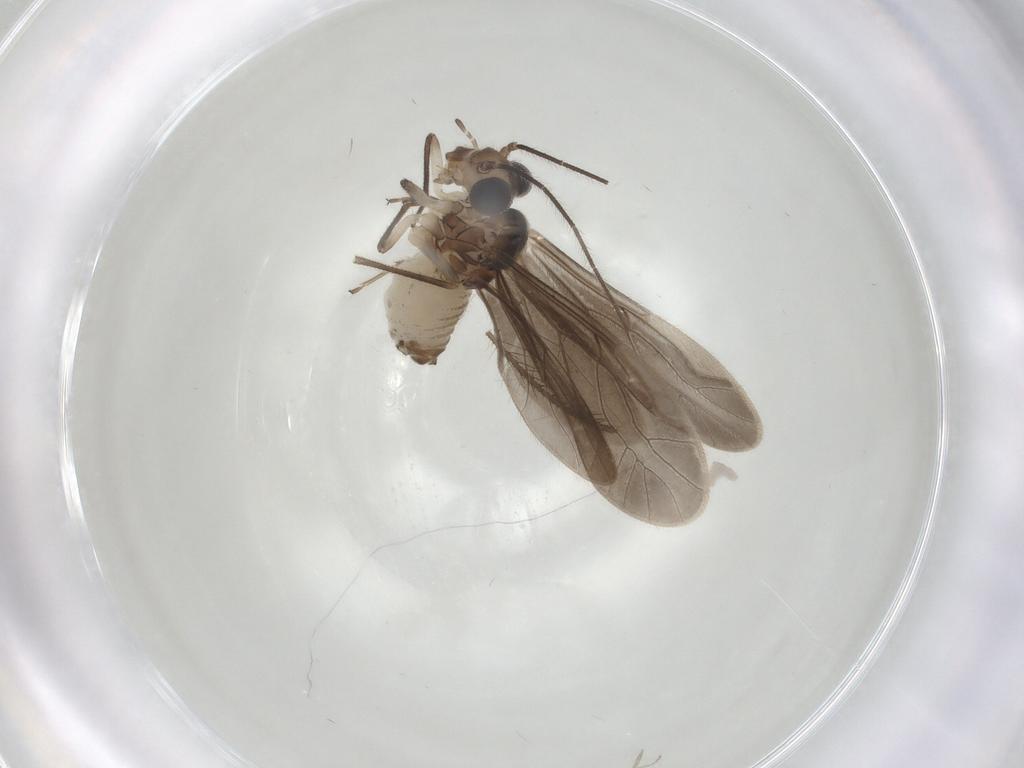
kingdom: Animalia
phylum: Arthropoda
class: Insecta
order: Psocodea
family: Caeciliusidae
